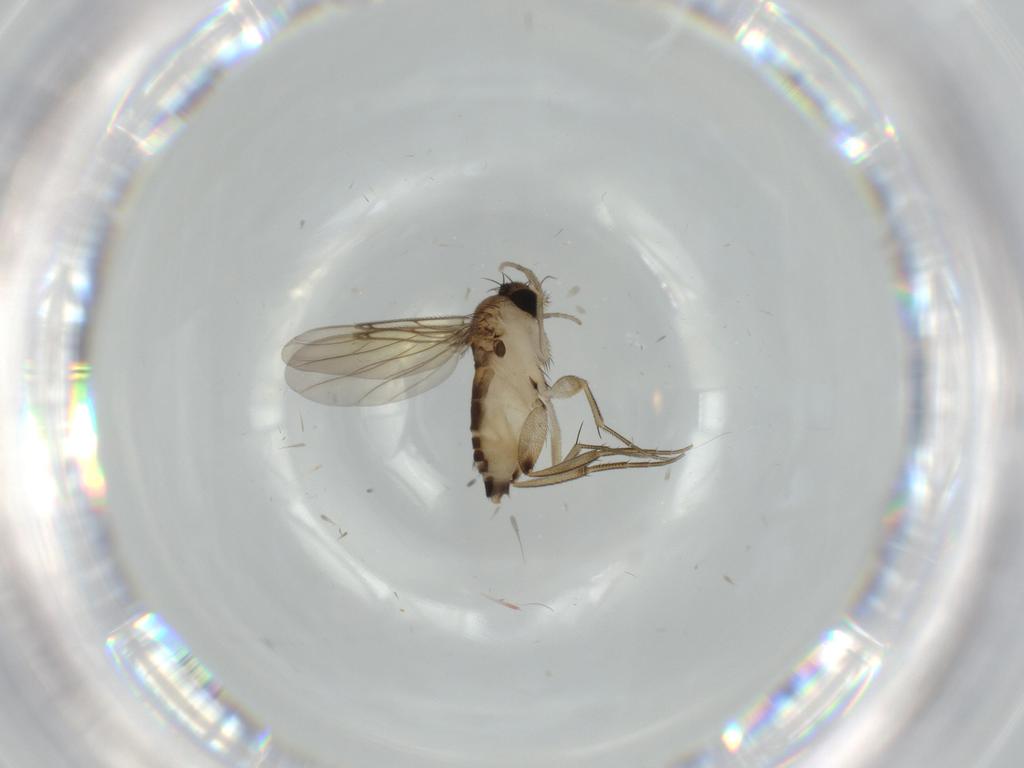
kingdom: Animalia
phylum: Arthropoda
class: Insecta
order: Diptera
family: Phoridae
